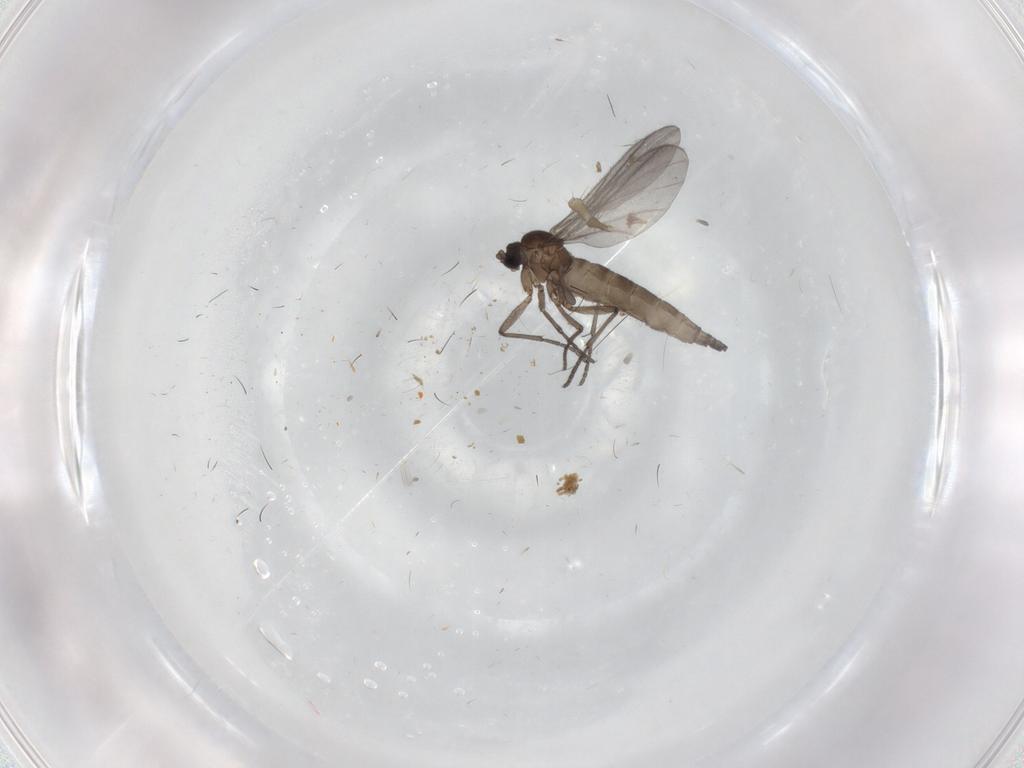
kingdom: Animalia
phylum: Arthropoda
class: Insecta
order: Diptera
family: Sciaridae
